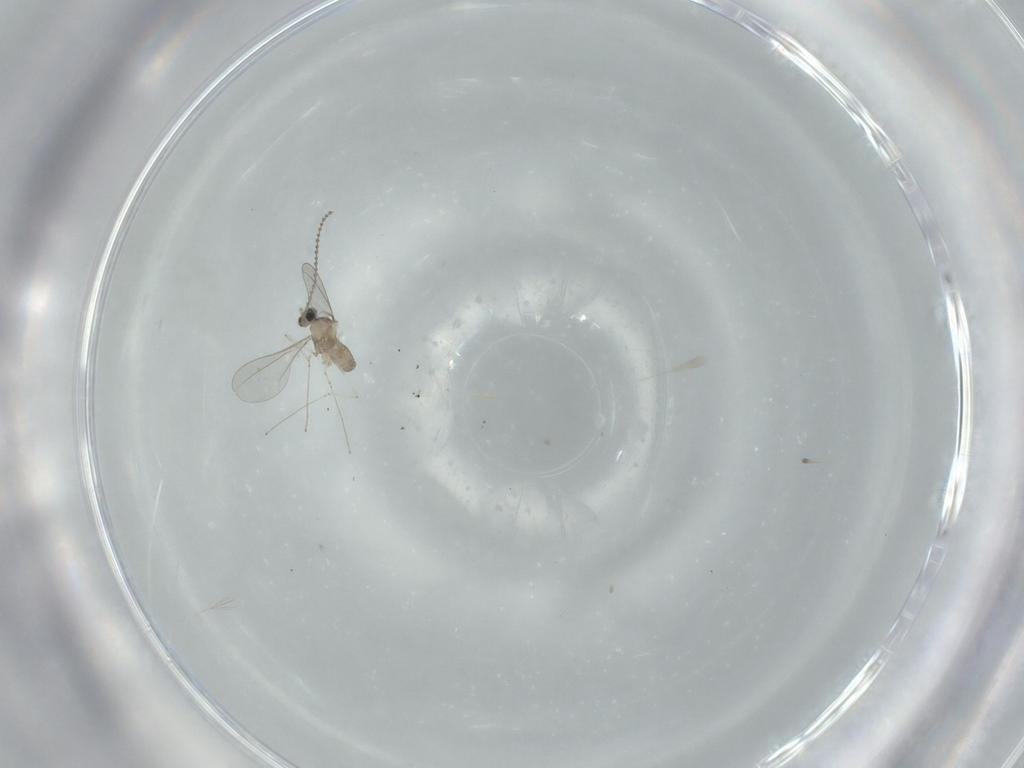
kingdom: Animalia
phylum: Arthropoda
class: Insecta
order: Diptera
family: Cecidomyiidae
